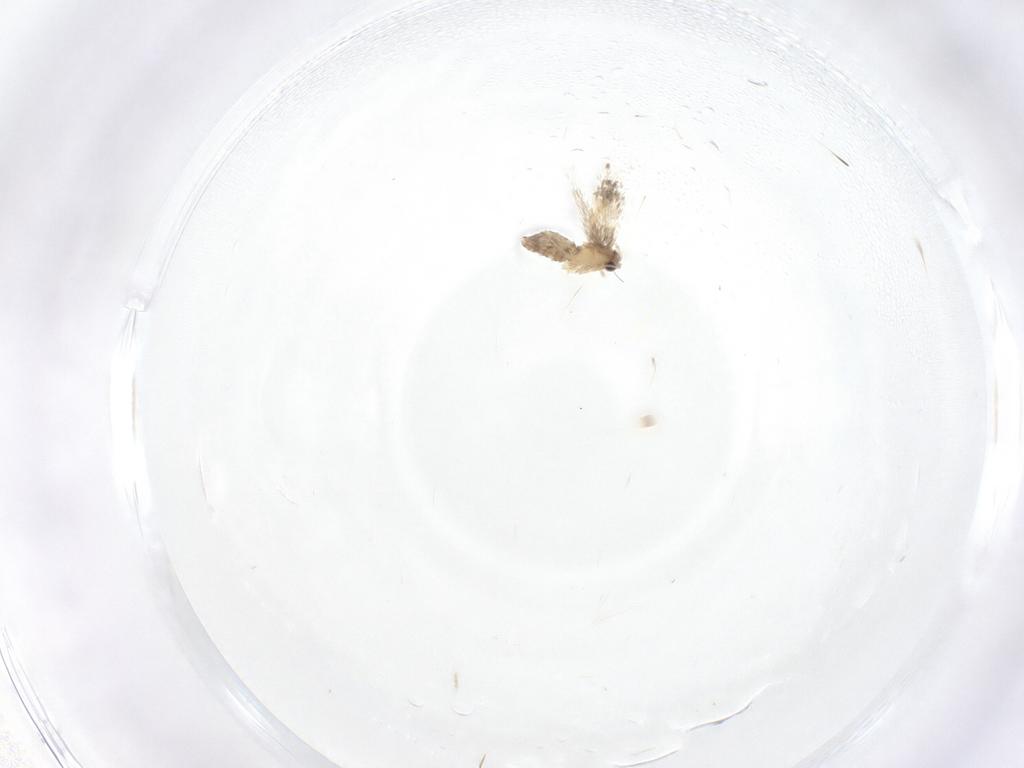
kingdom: Animalia
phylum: Arthropoda
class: Insecta
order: Lepidoptera
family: Nepticulidae
